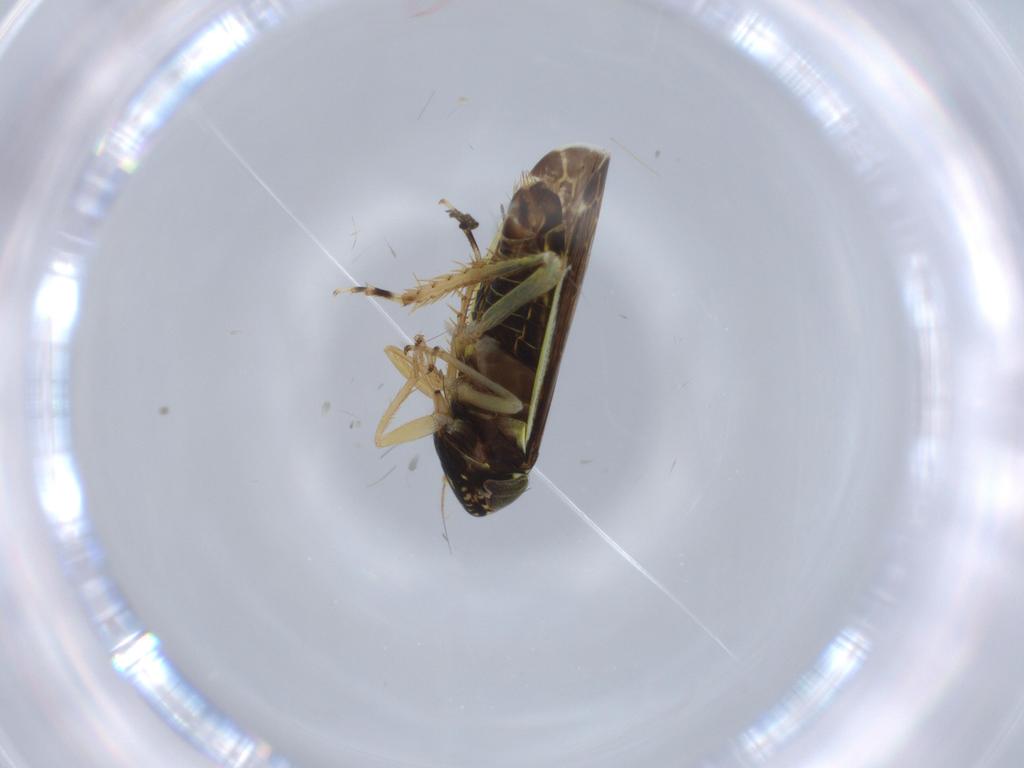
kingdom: Animalia
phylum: Arthropoda
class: Insecta
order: Hemiptera
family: Cicadellidae
